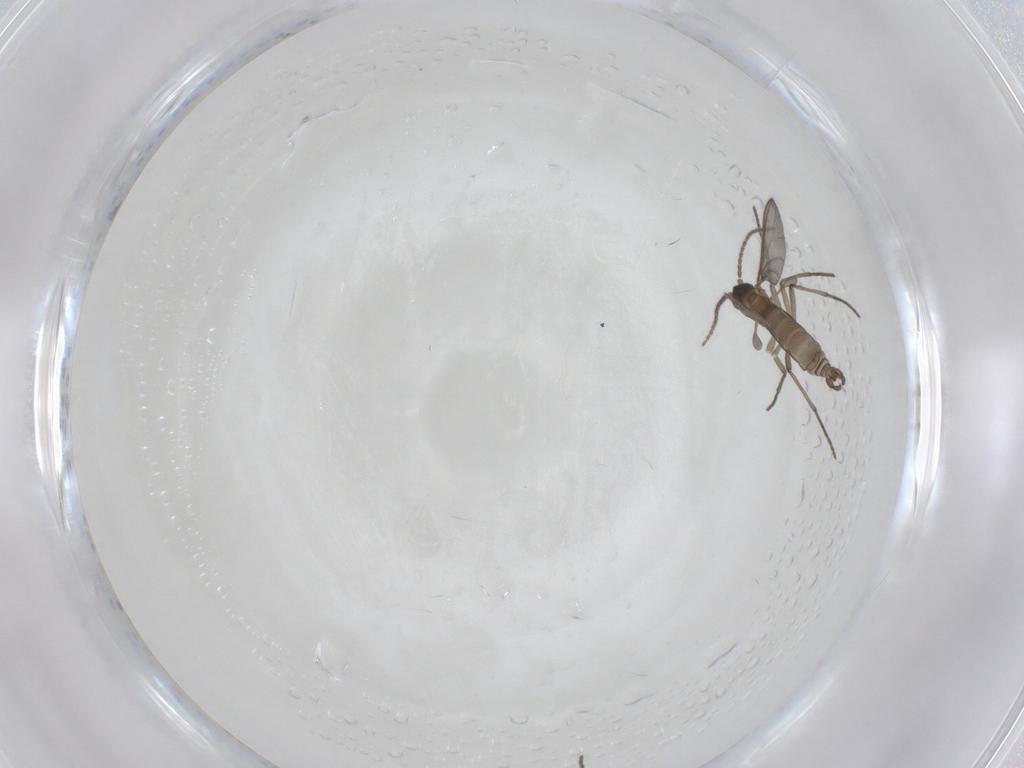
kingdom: Animalia
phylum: Arthropoda
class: Insecta
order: Diptera
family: Sciaridae
